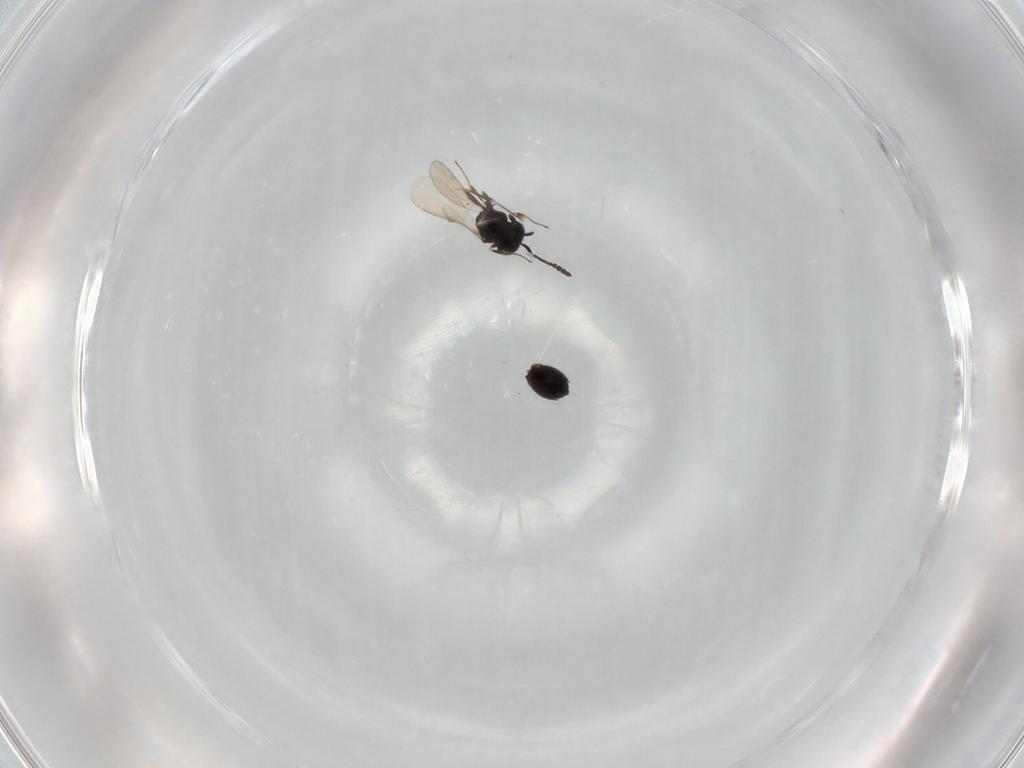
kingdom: Animalia
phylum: Arthropoda
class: Insecta
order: Hymenoptera
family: Scelionidae
